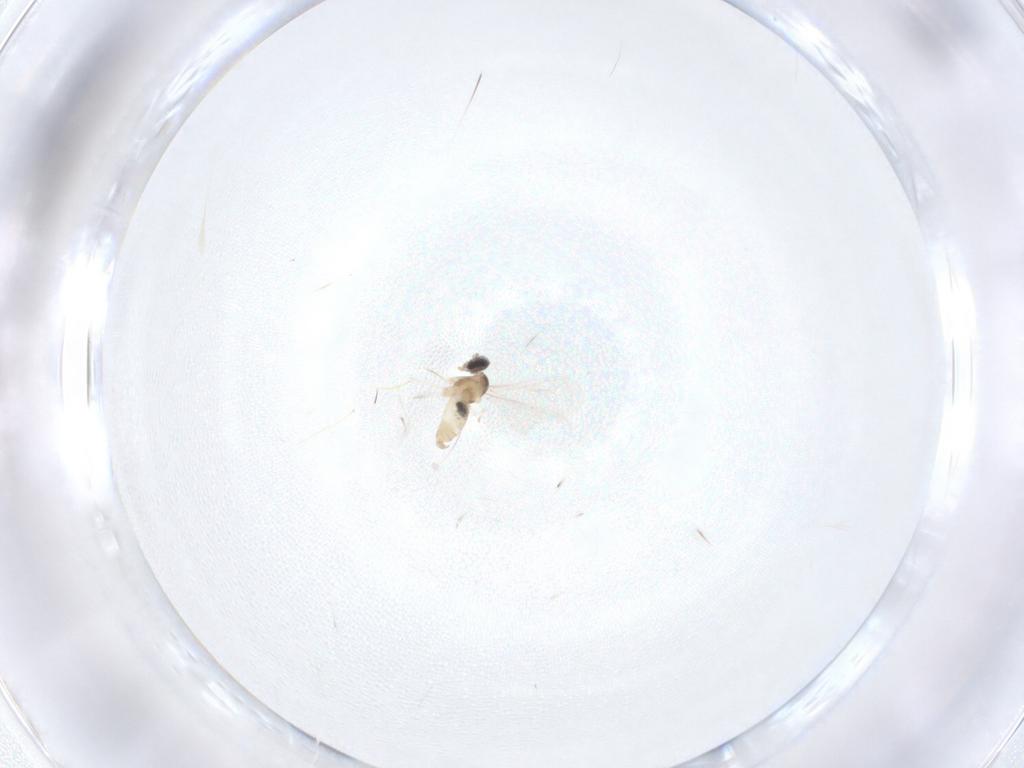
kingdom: Animalia
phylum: Arthropoda
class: Insecta
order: Diptera
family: Cecidomyiidae
